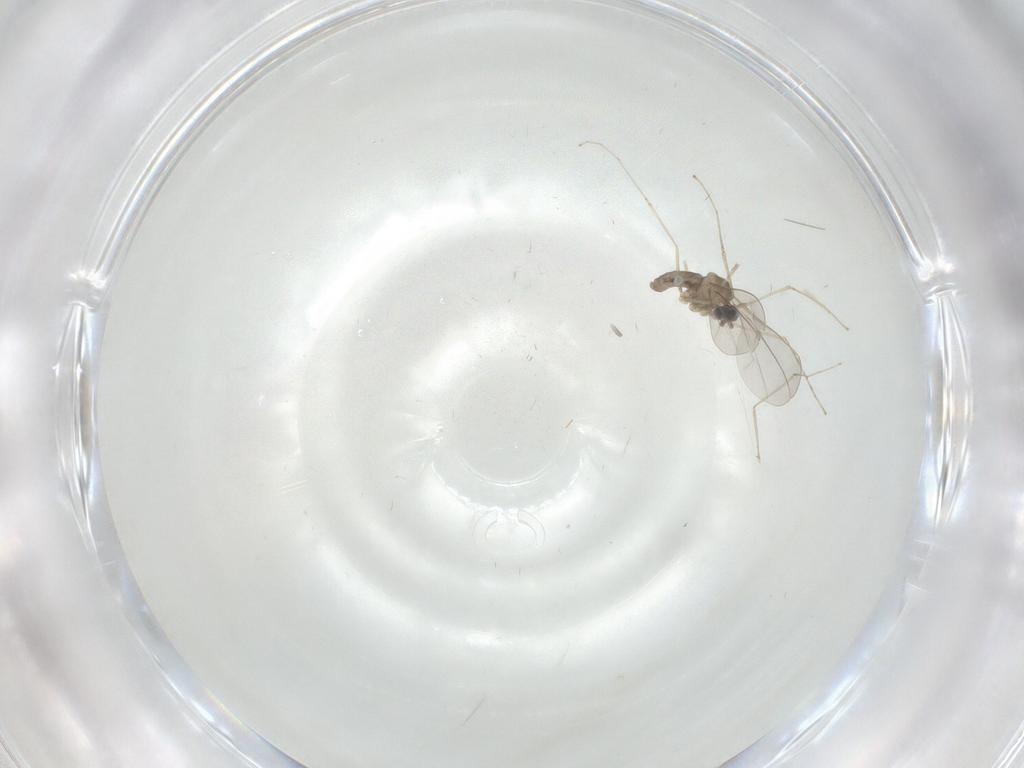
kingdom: Animalia
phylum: Arthropoda
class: Insecta
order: Diptera
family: Cecidomyiidae
